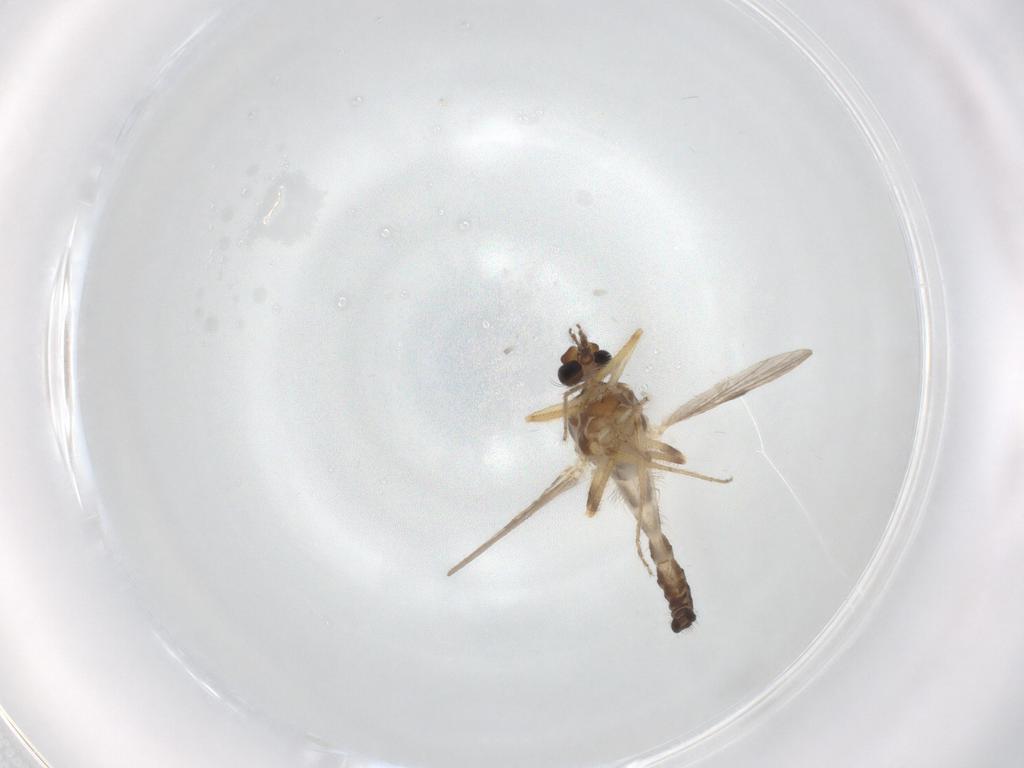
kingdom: Animalia
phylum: Arthropoda
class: Insecta
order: Diptera
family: Ceratopogonidae
